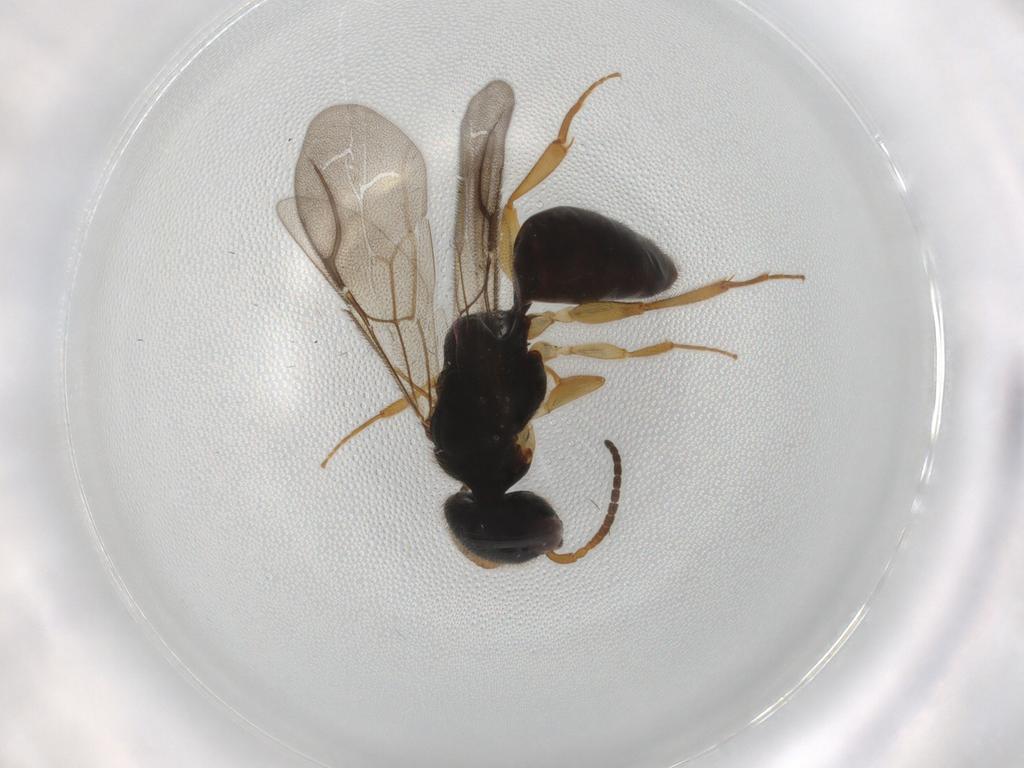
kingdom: Animalia
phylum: Arthropoda
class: Insecta
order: Hymenoptera
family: Bethylidae
